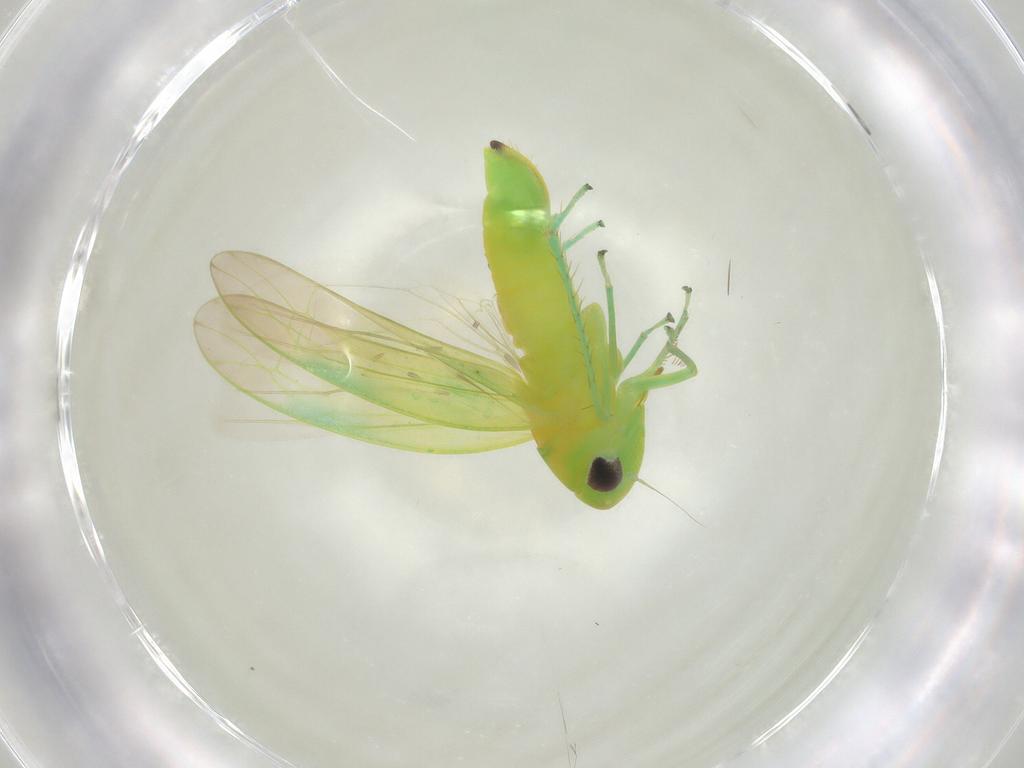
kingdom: Animalia
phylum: Arthropoda
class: Insecta
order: Hemiptera
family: Cicadellidae
